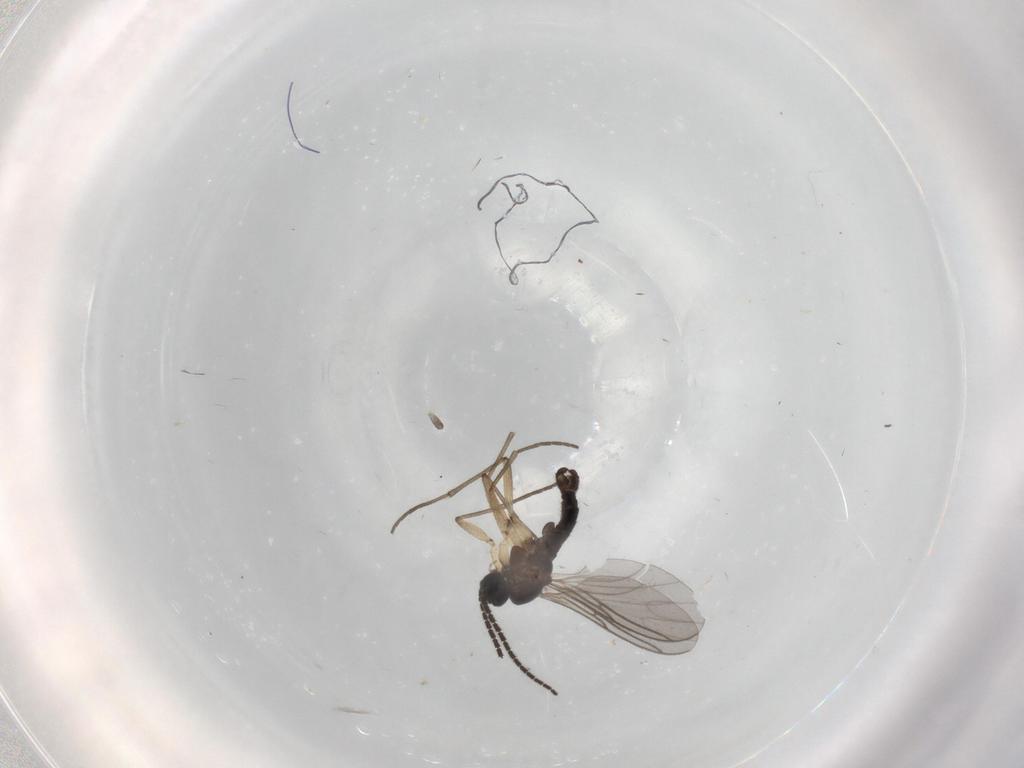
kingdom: Animalia
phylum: Arthropoda
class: Insecta
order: Diptera
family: Sciaridae
